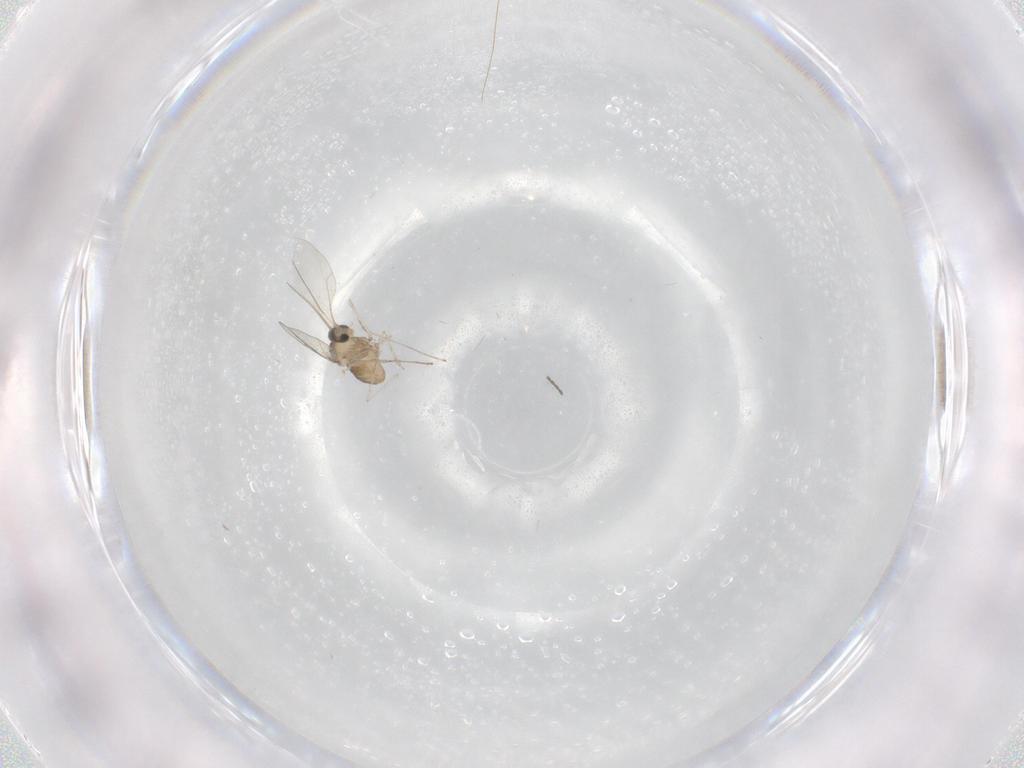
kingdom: Animalia
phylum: Arthropoda
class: Insecta
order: Diptera
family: Cecidomyiidae
